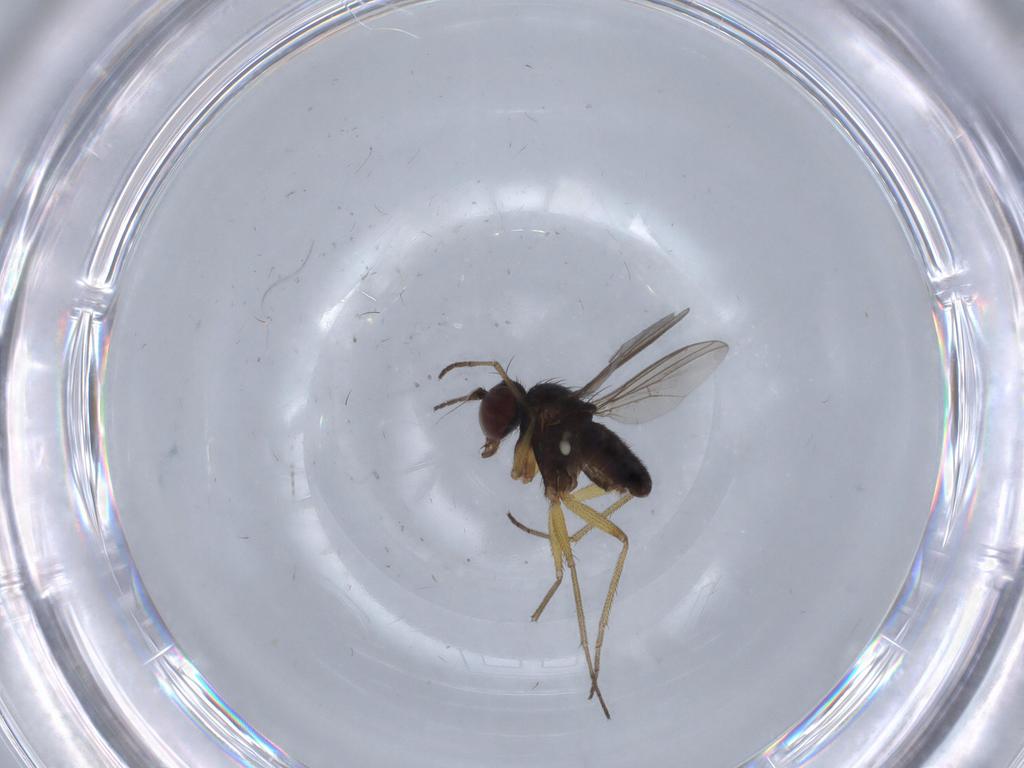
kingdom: Animalia
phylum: Arthropoda
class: Insecta
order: Diptera
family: Dolichopodidae
